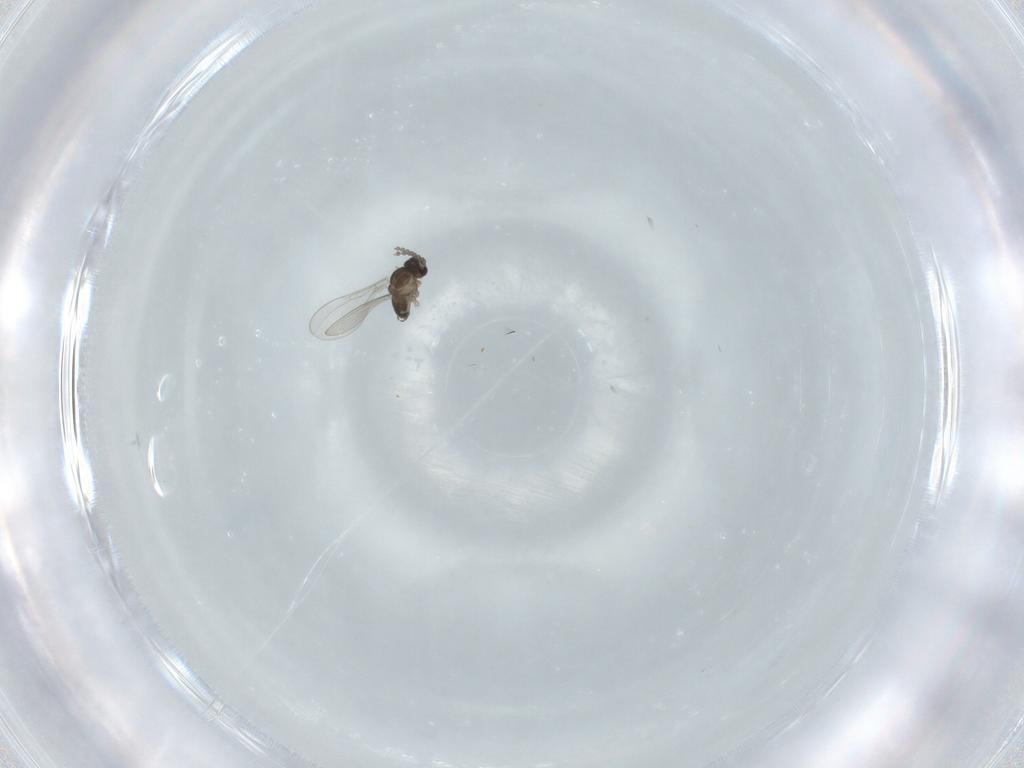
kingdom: Animalia
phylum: Arthropoda
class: Insecta
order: Diptera
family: Cecidomyiidae
